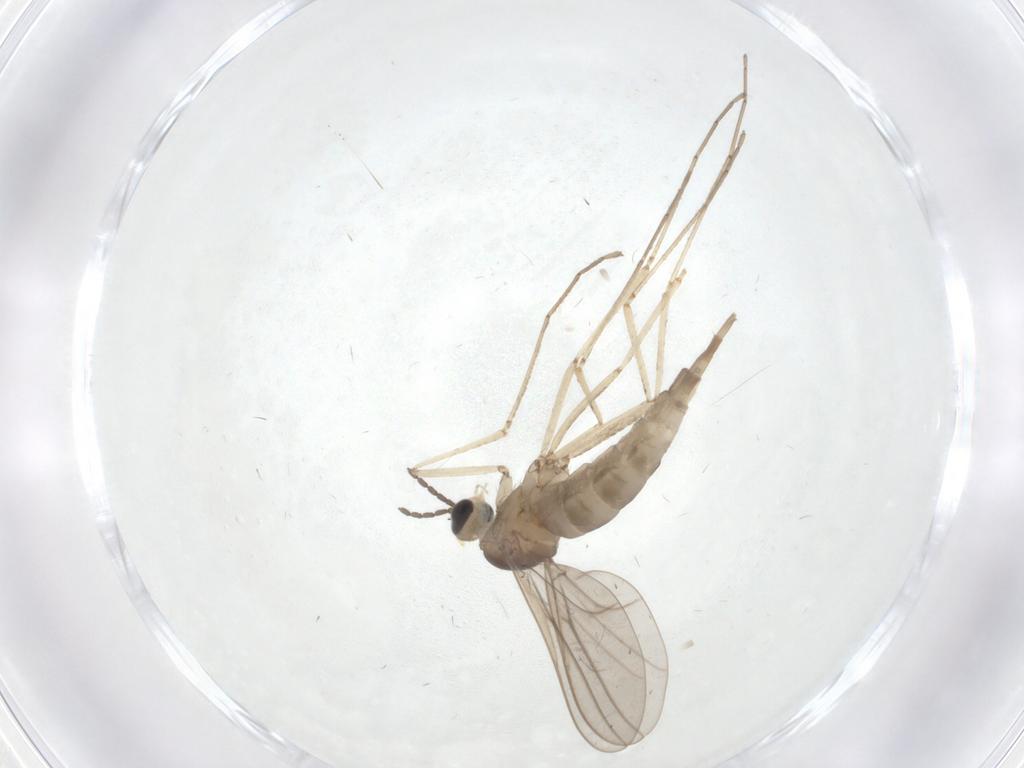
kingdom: Animalia
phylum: Arthropoda
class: Insecta
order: Diptera
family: Cecidomyiidae
